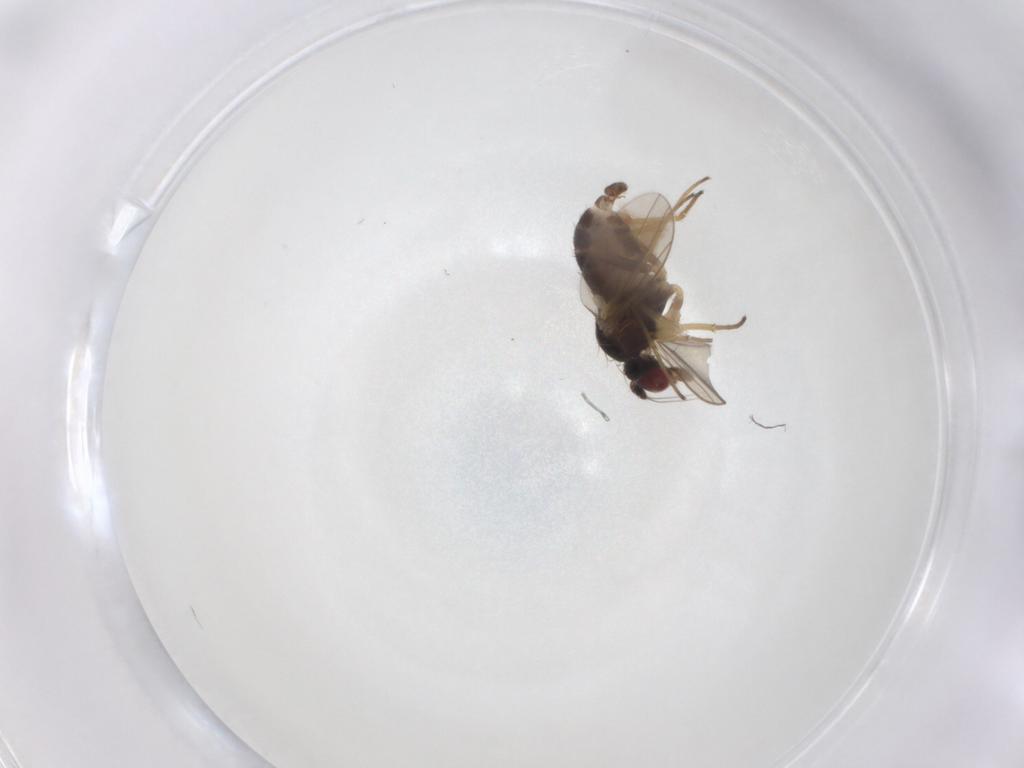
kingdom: Animalia
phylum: Arthropoda
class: Insecta
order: Diptera
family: Dolichopodidae
